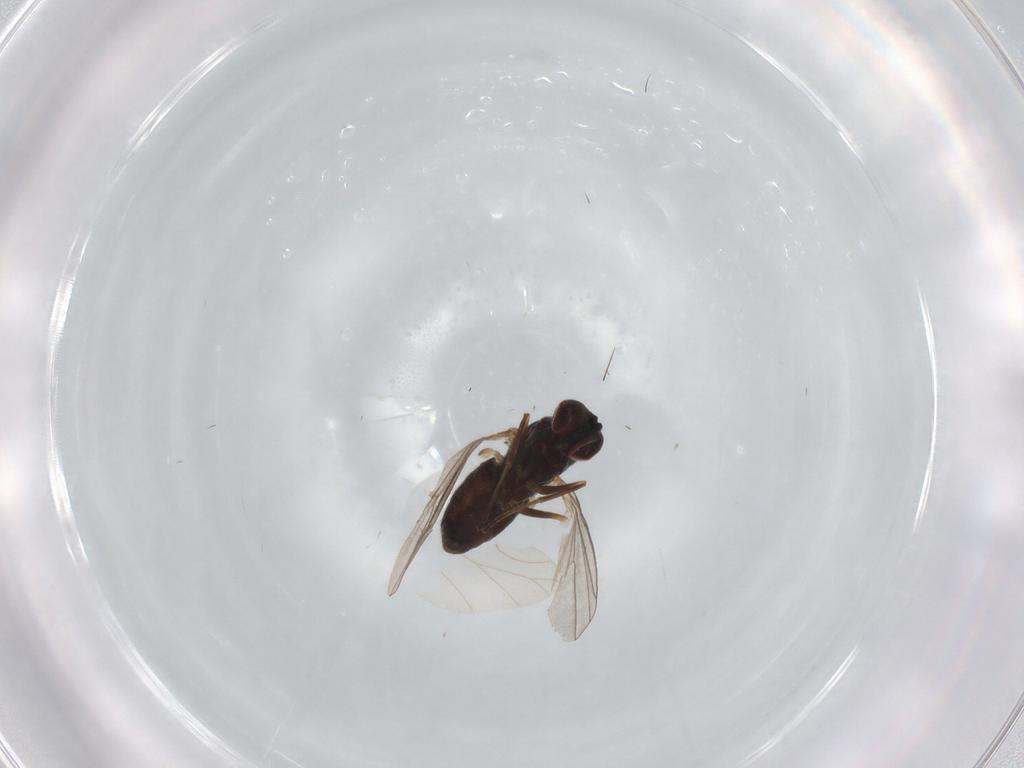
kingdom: Animalia
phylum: Arthropoda
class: Insecta
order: Diptera
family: Dolichopodidae
